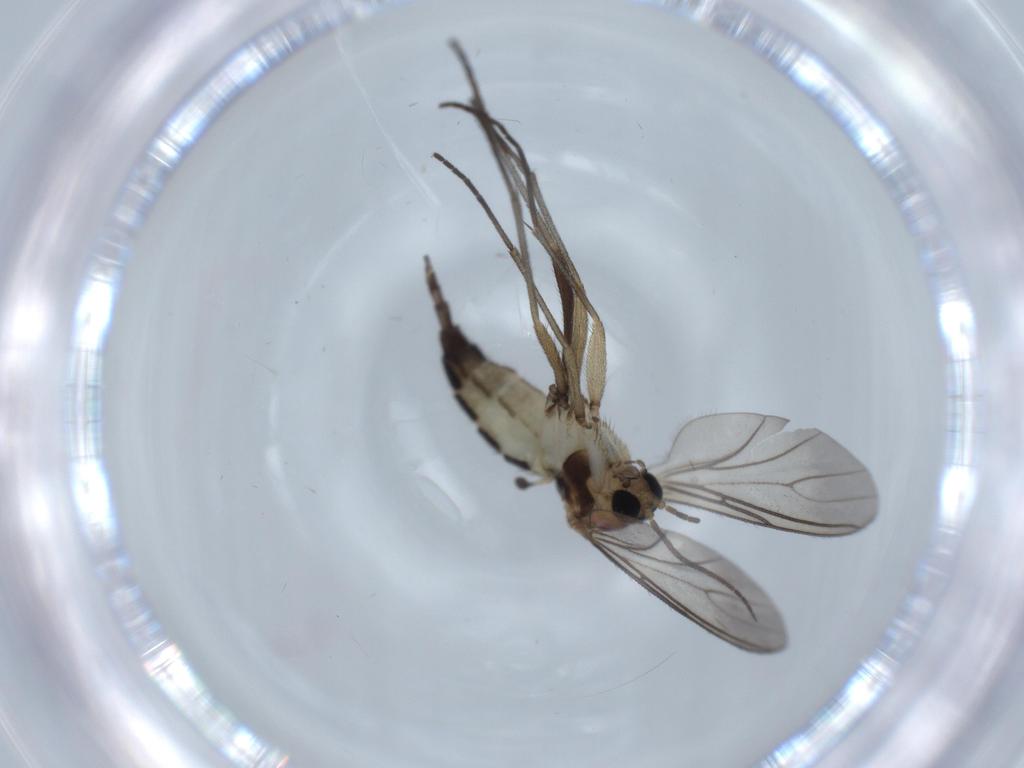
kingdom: Animalia
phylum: Arthropoda
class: Insecta
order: Diptera
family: Sciaridae
